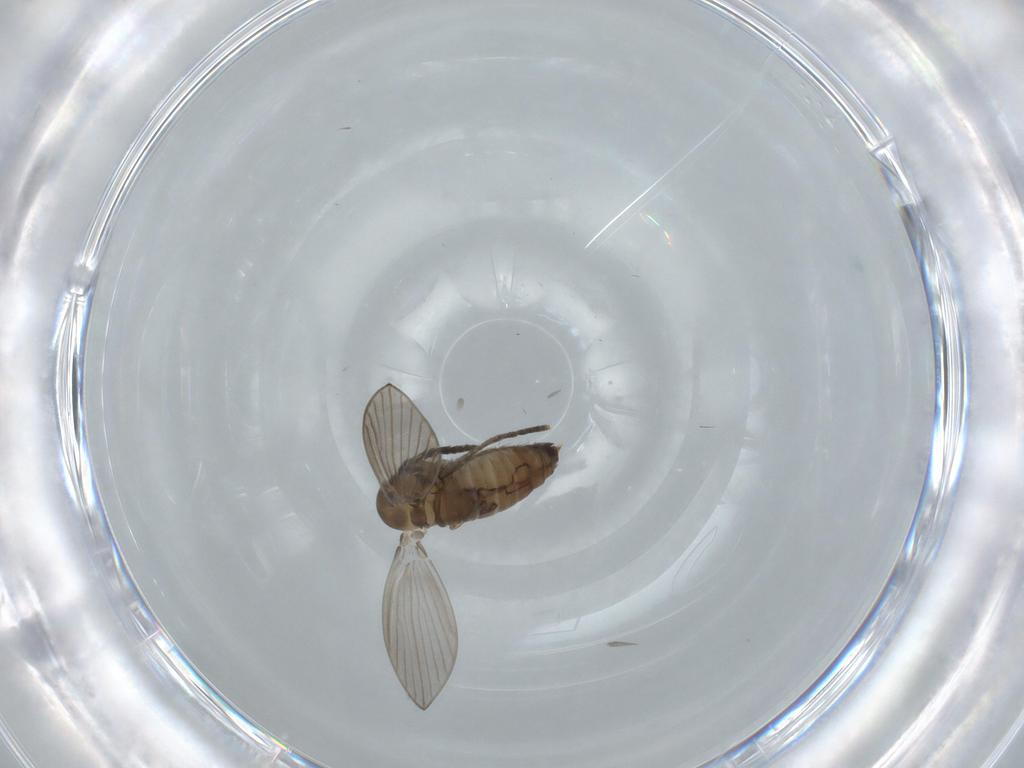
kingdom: Animalia
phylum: Arthropoda
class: Insecta
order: Diptera
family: Psychodidae
